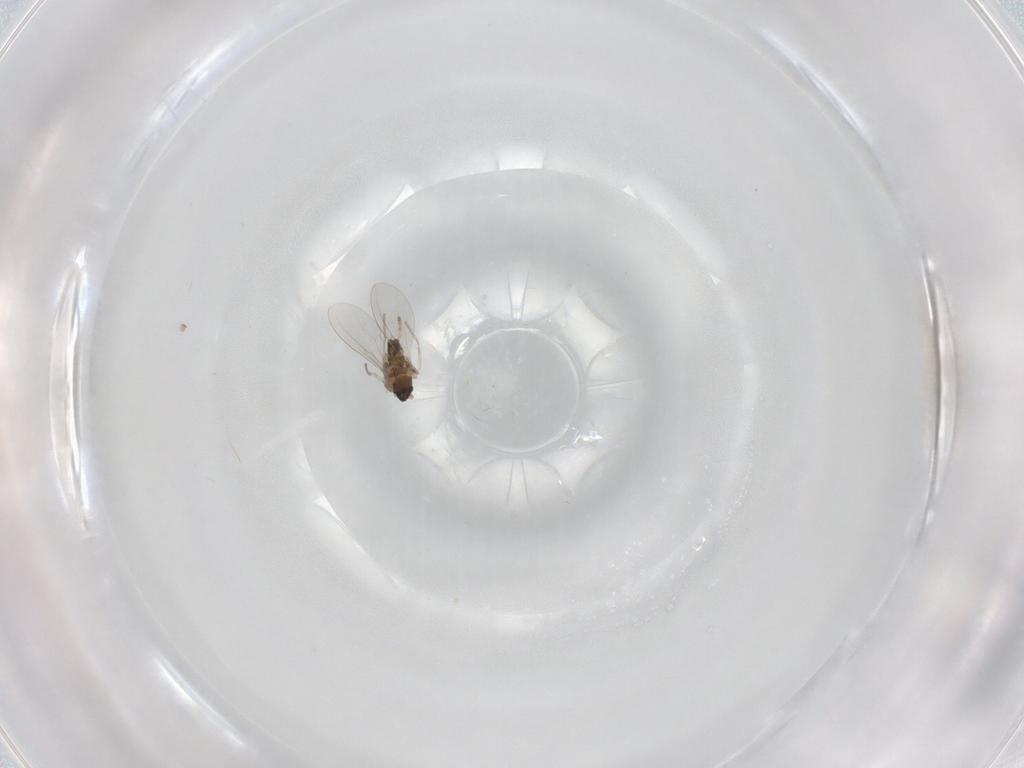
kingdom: Animalia
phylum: Arthropoda
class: Insecta
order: Diptera
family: Cecidomyiidae
